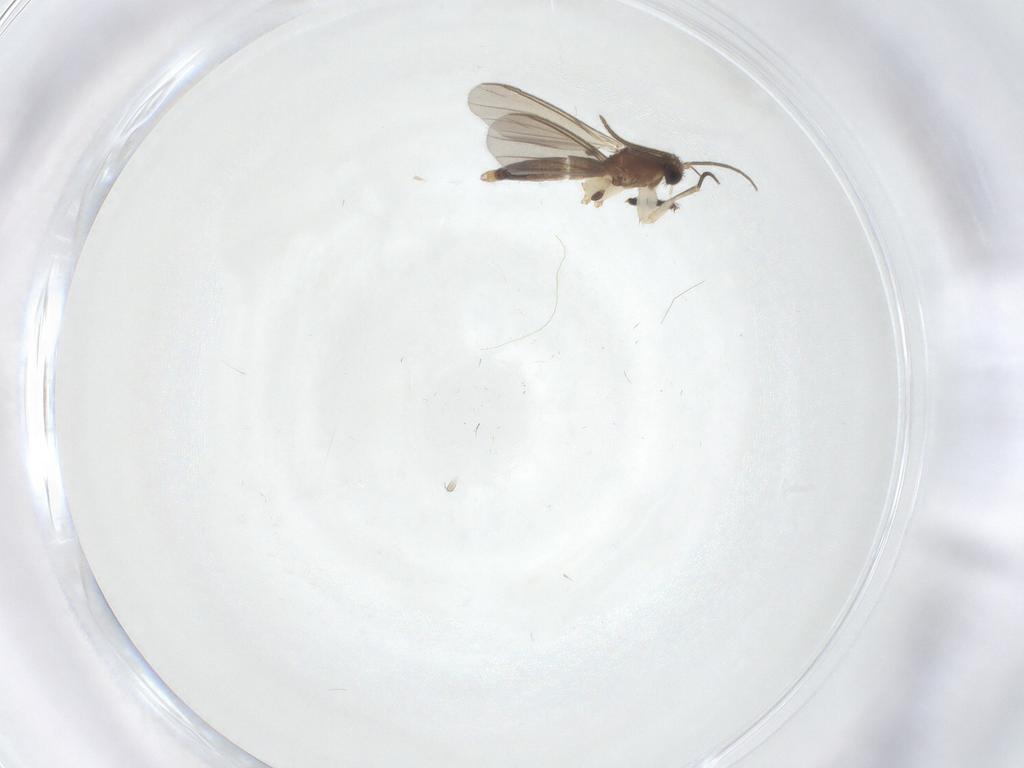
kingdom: Animalia
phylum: Arthropoda
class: Insecta
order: Diptera
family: Mycetophilidae
